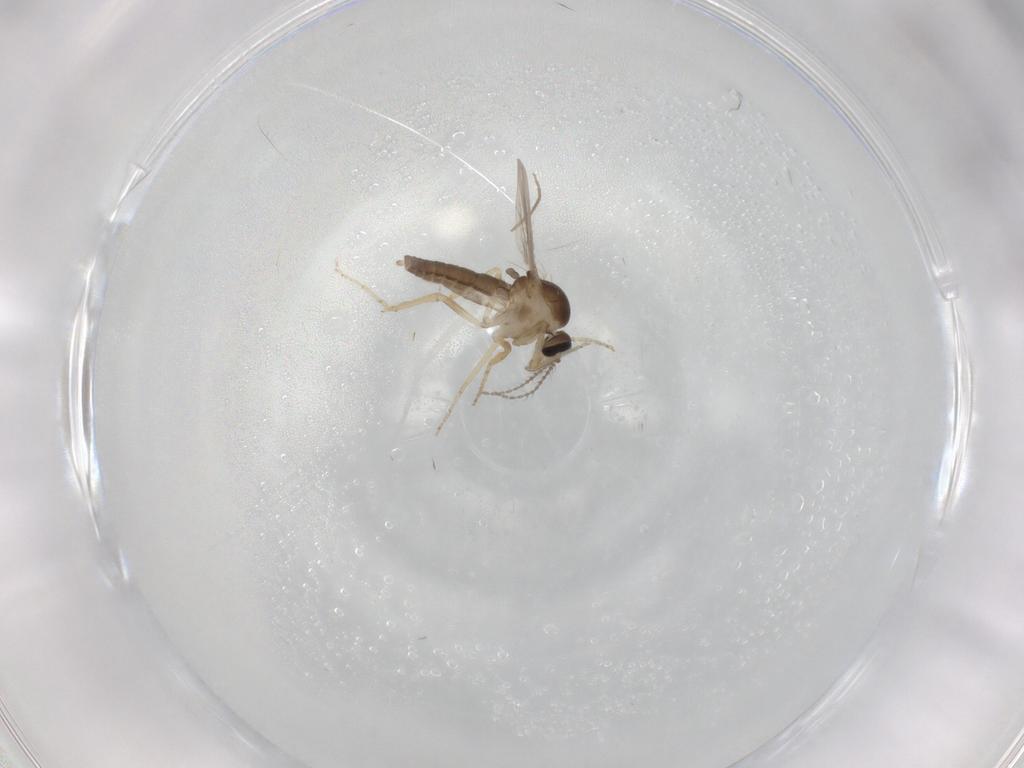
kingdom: Animalia
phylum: Arthropoda
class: Insecta
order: Diptera
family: Ceratopogonidae
